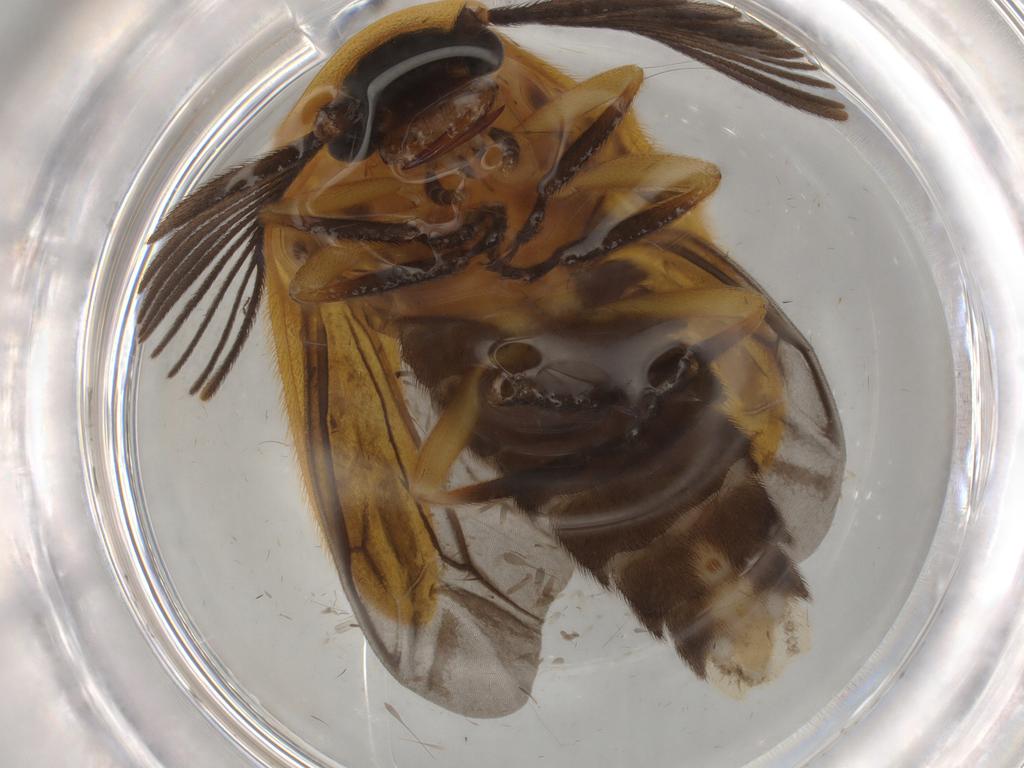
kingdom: Animalia
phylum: Arthropoda
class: Insecta
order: Coleoptera
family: Lampyridae
